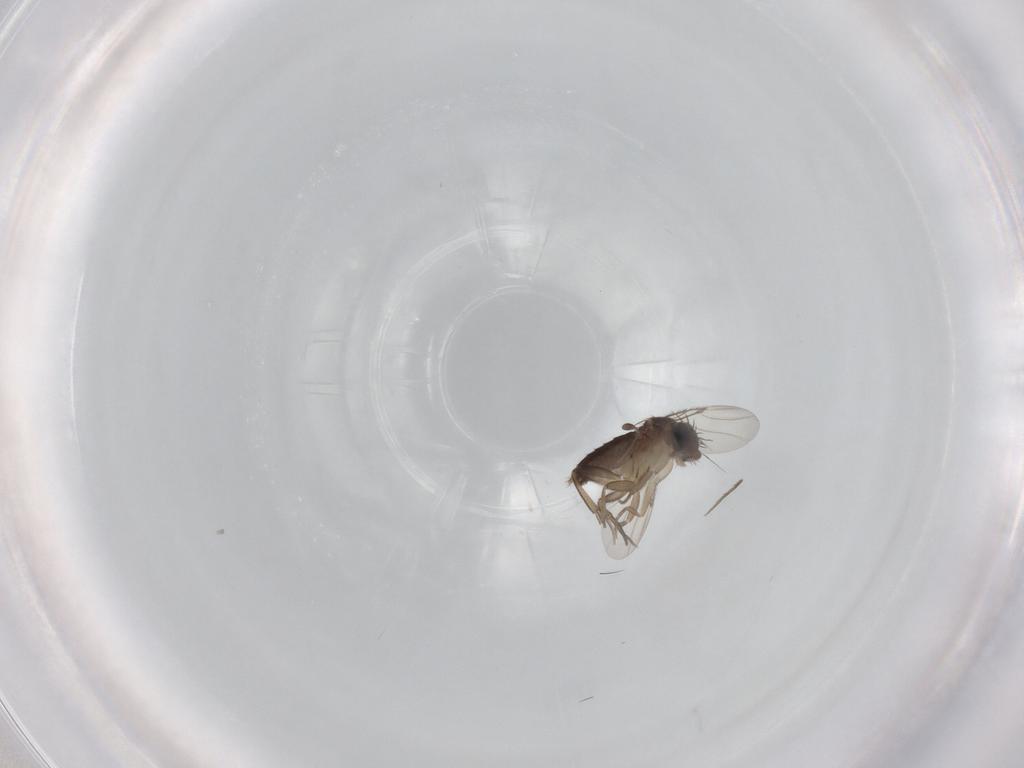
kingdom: Animalia
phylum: Arthropoda
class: Insecta
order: Diptera
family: Phoridae
